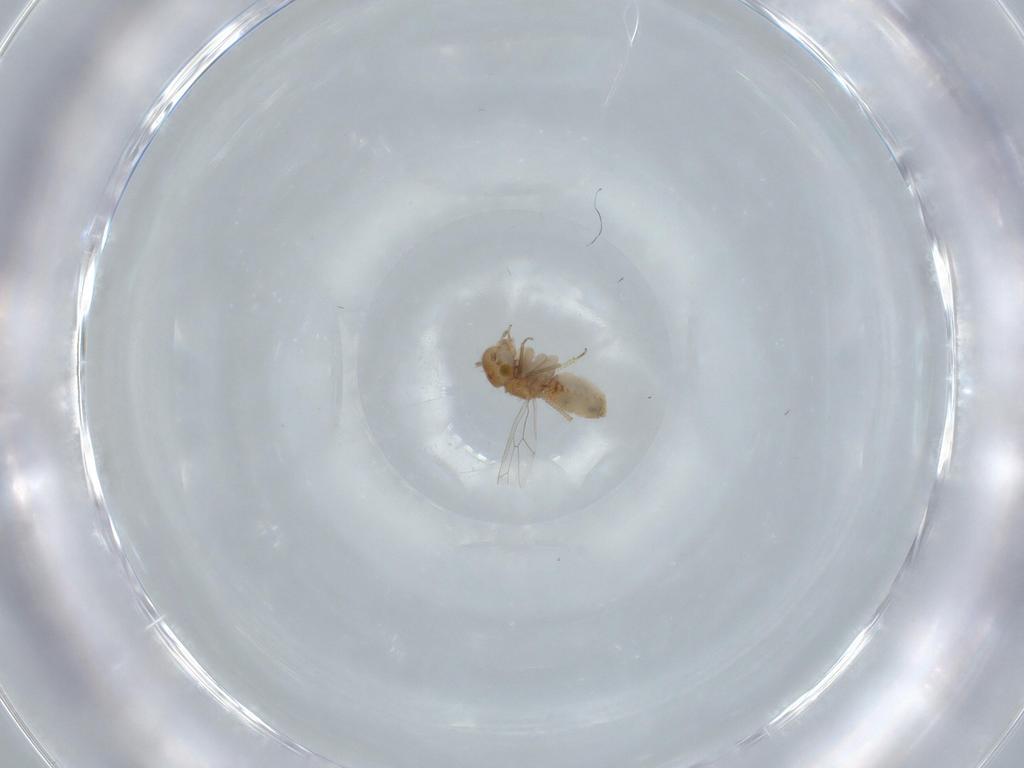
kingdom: Animalia
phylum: Arthropoda
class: Insecta
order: Psocodea
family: Ectopsocidae
